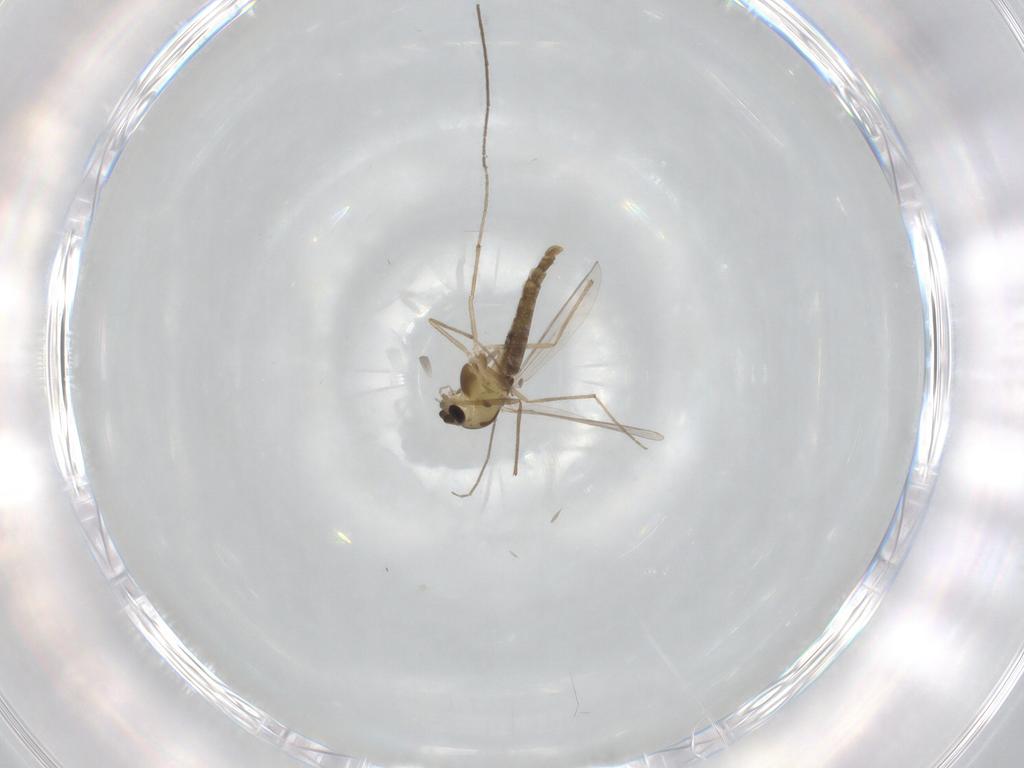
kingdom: Animalia
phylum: Arthropoda
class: Insecta
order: Diptera
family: Chironomidae
